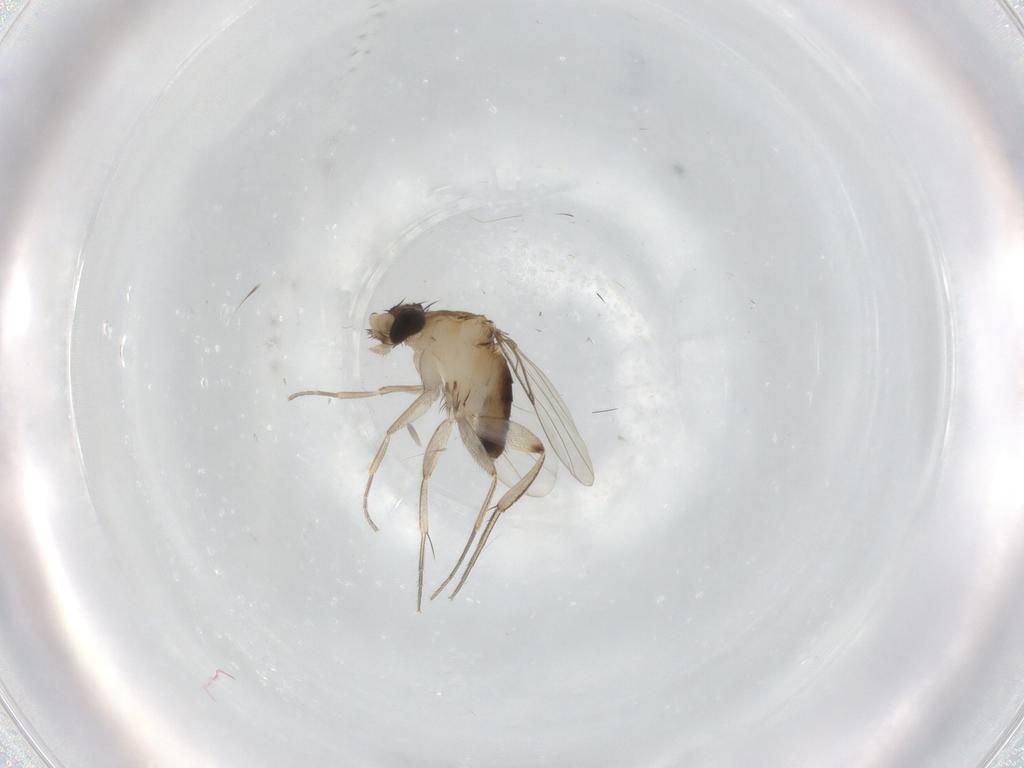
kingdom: Animalia
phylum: Arthropoda
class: Insecta
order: Diptera
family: Phoridae
